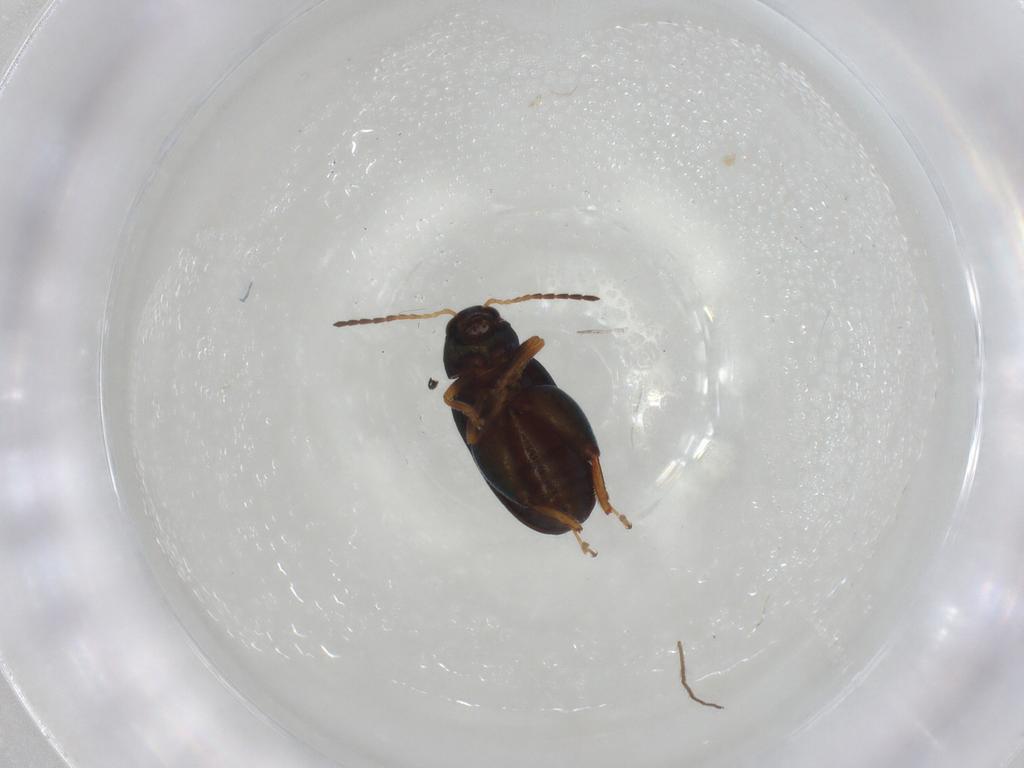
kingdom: Animalia
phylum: Arthropoda
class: Insecta
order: Coleoptera
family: Chrysomelidae
